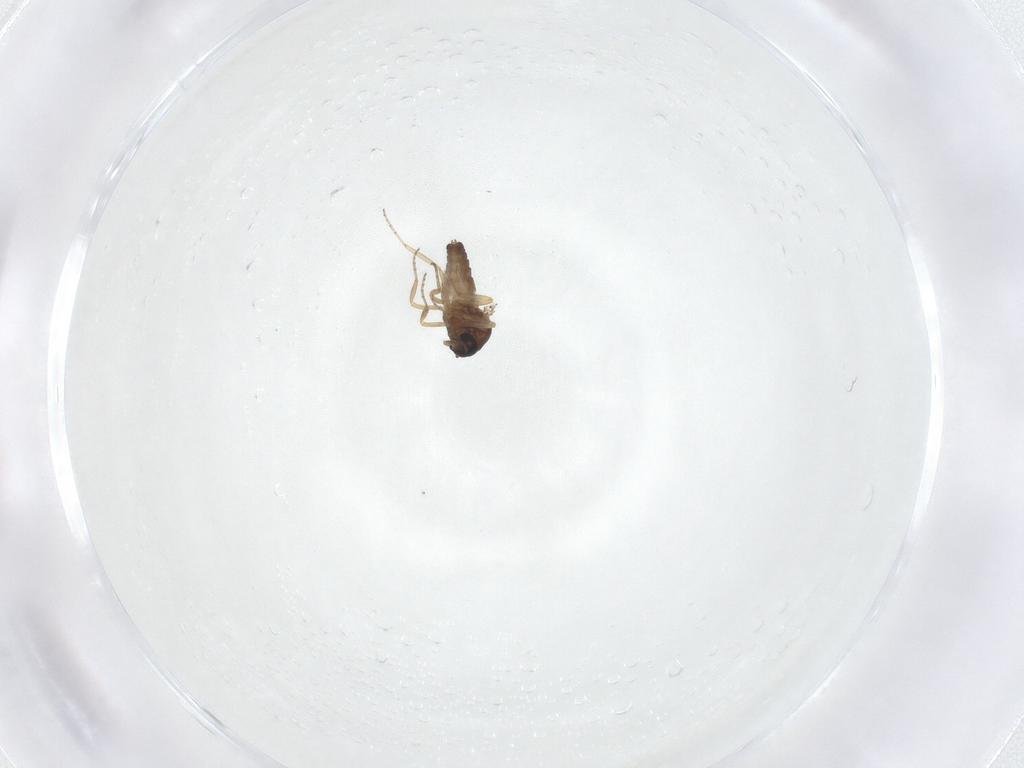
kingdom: Animalia
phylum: Arthropoda
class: Insecta
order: Diptera
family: Ceratopogonidae
